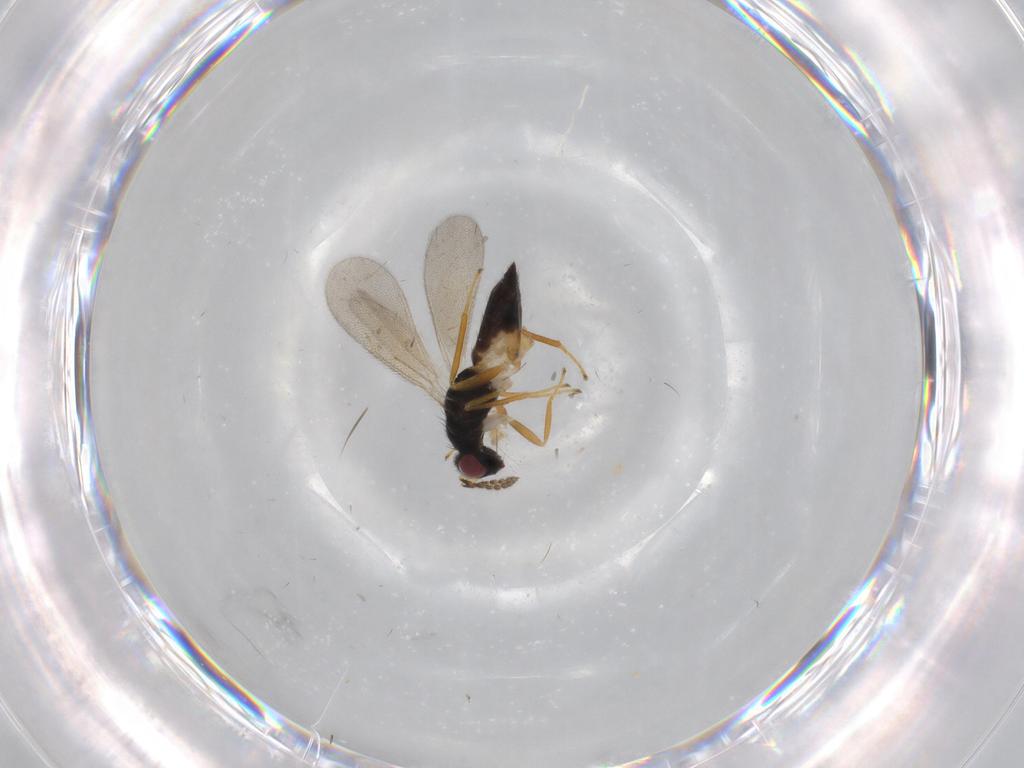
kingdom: Animalia
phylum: Arthropoda
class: Insecta
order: Hymenoptera
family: Eulophidae
